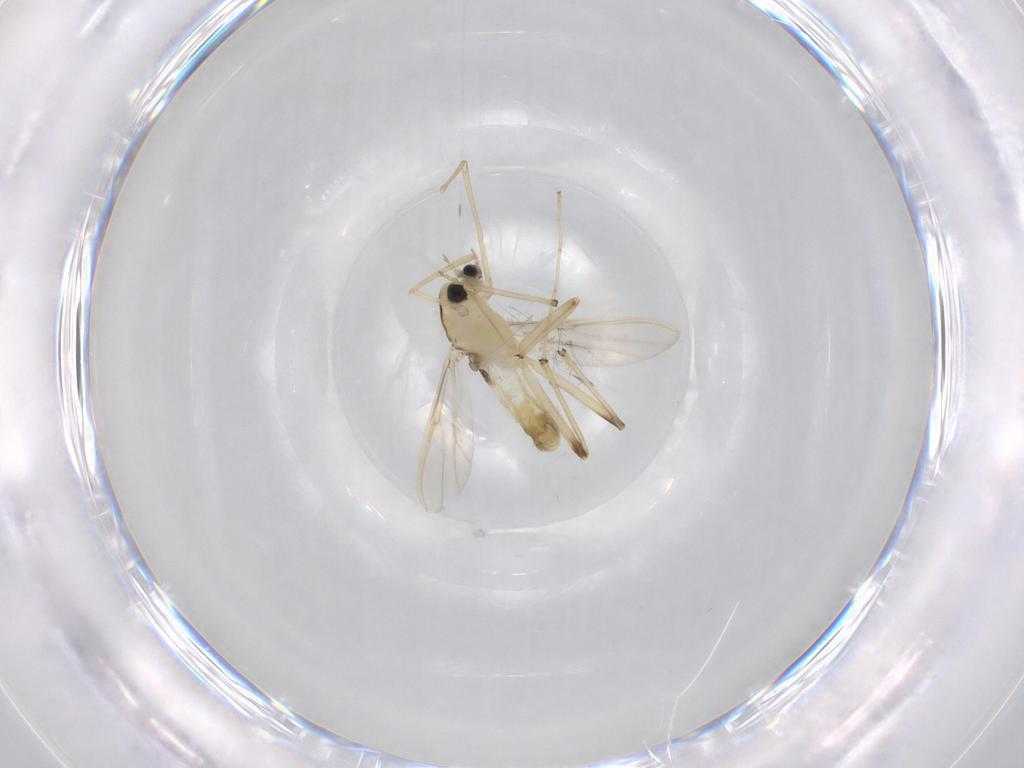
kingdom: Animalia
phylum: Arthropoda
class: Insecta
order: Diptera
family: Chironomidae
